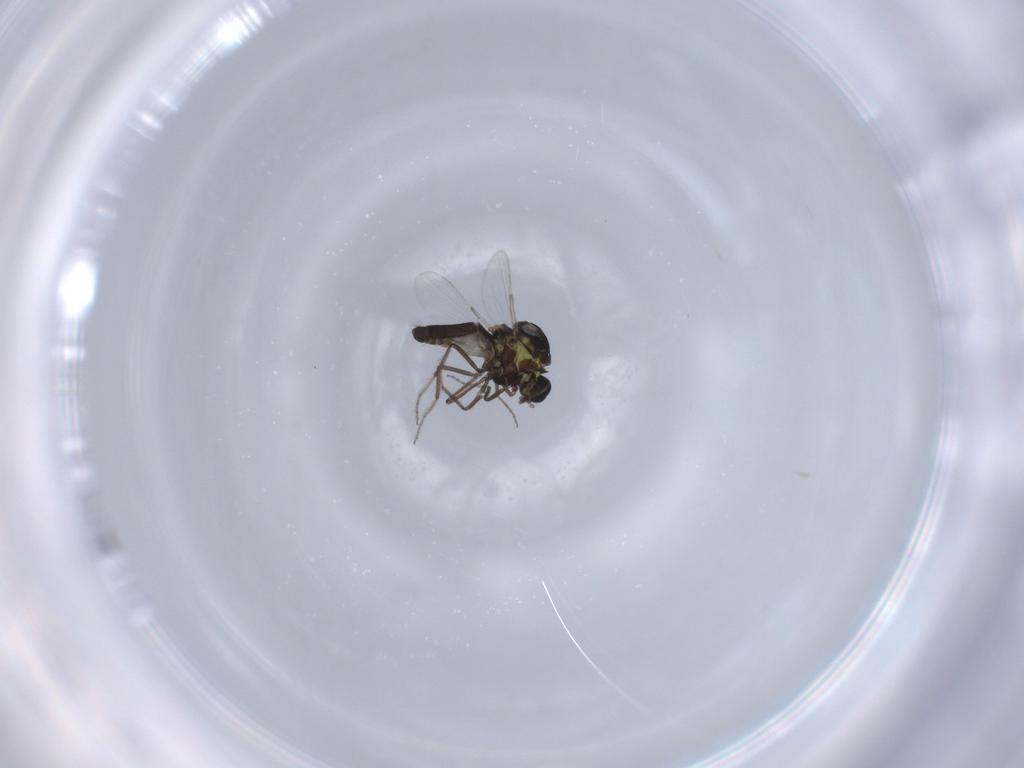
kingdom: Animalia
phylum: Arthropoda
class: Insecta
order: Diptera
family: Ceratopogonidae
